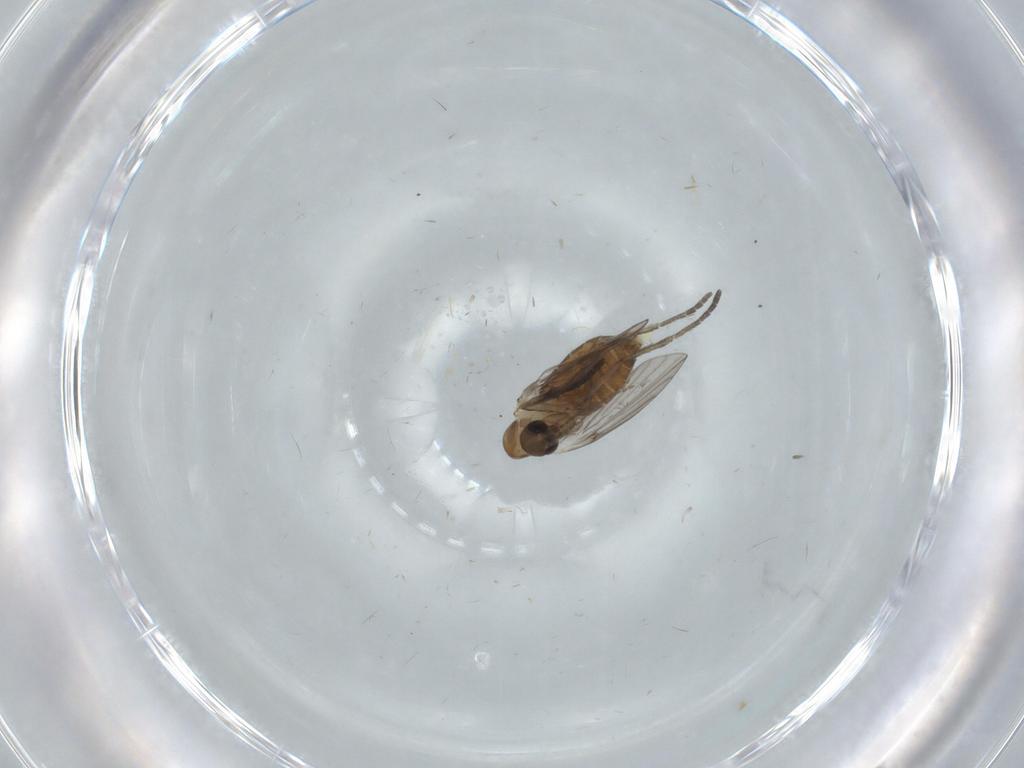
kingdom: Animalia
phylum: Arthropoda
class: Insecta
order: Diptera
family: Limoniidae
